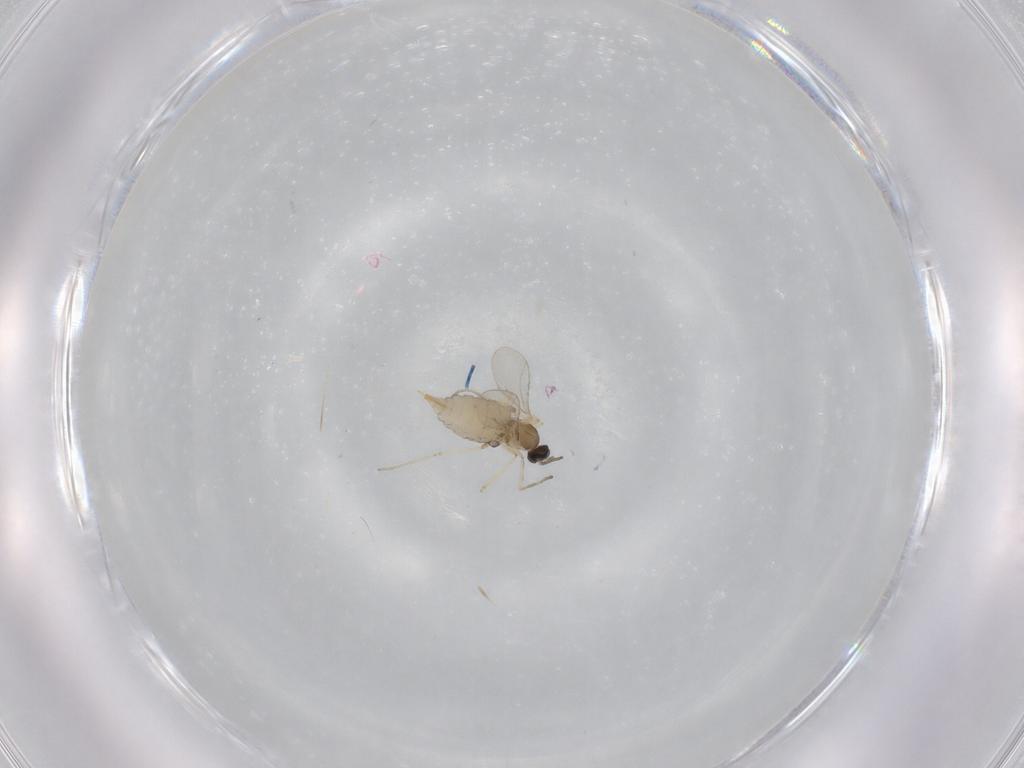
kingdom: Animalia
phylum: Arthropoda
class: Insecta
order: Diptera
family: Cecidomyiidae
